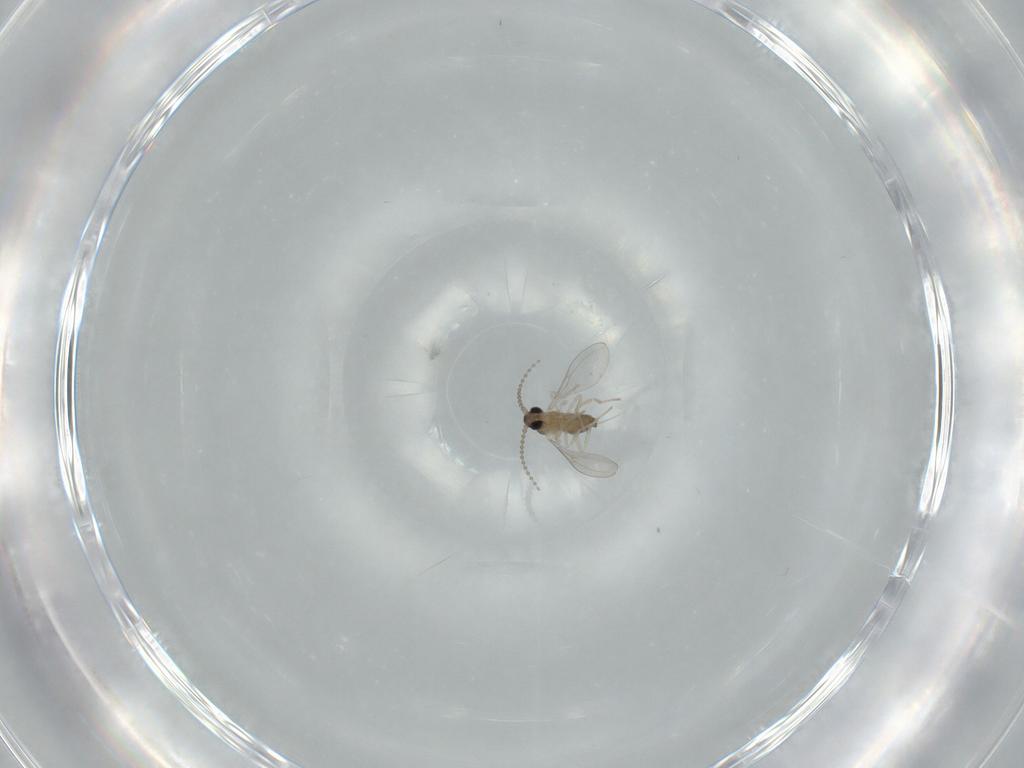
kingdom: Animalia
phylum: Arthropoda
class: Insecta
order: Diptera
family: Cecidomyiidae
